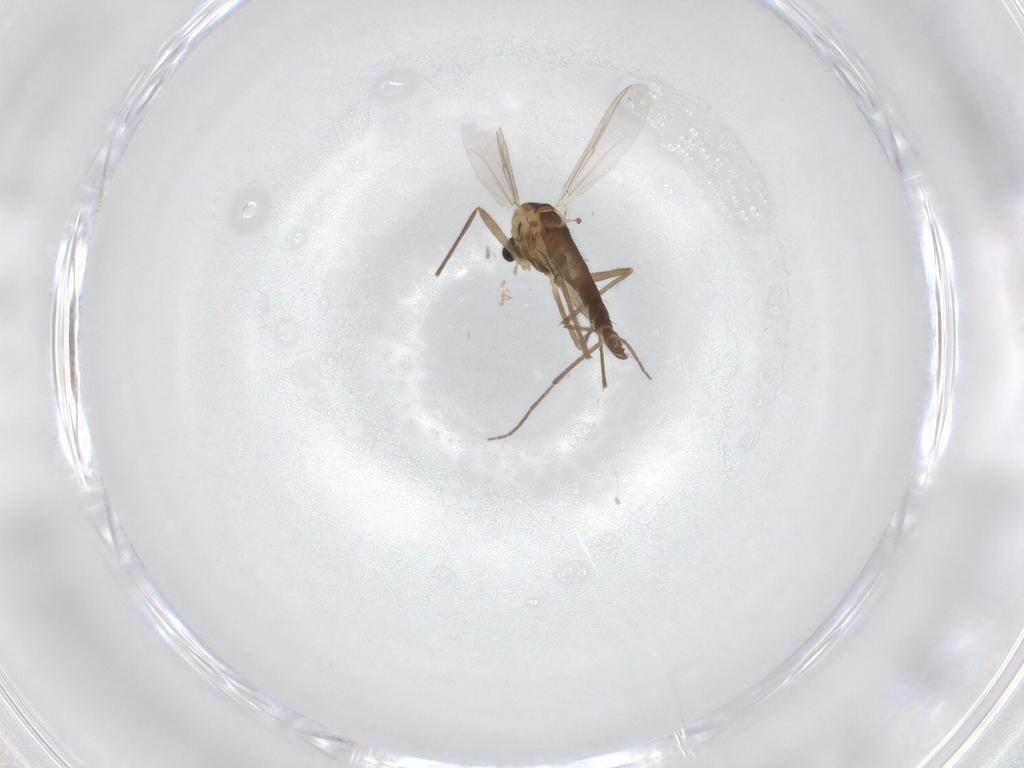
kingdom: Animalia
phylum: Arthropoda
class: Insecta
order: Diptera
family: Chironomidae
